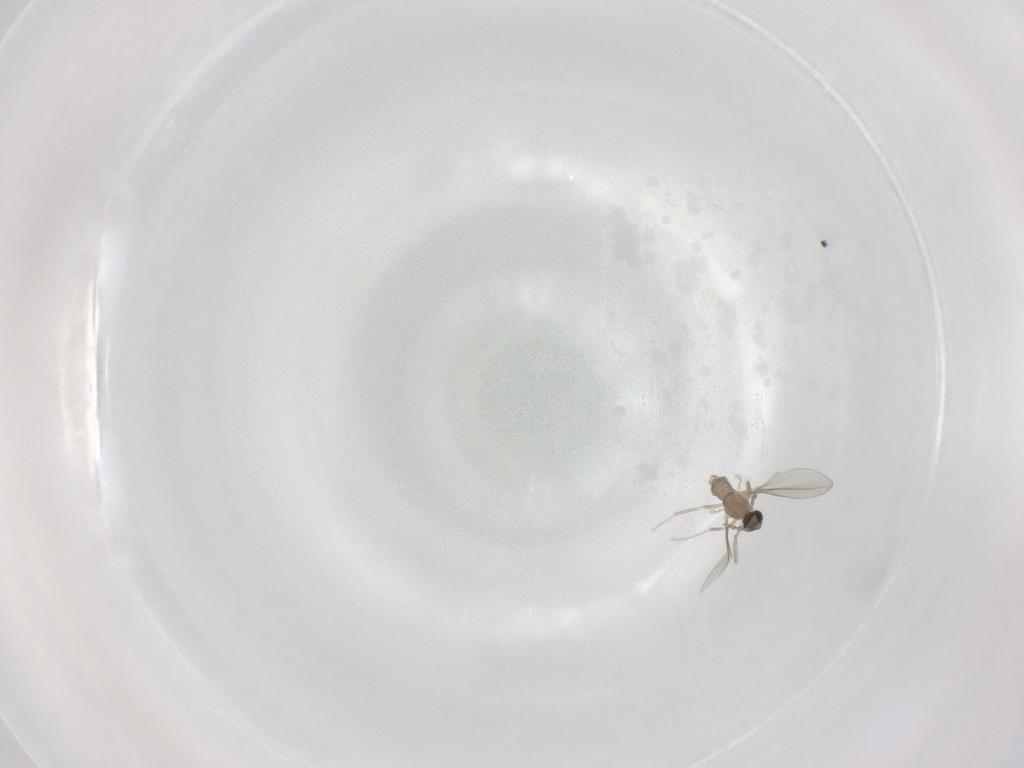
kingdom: Animalia
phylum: Arthropoda
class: Insecta
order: Diptera
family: Cecidomyiidae
